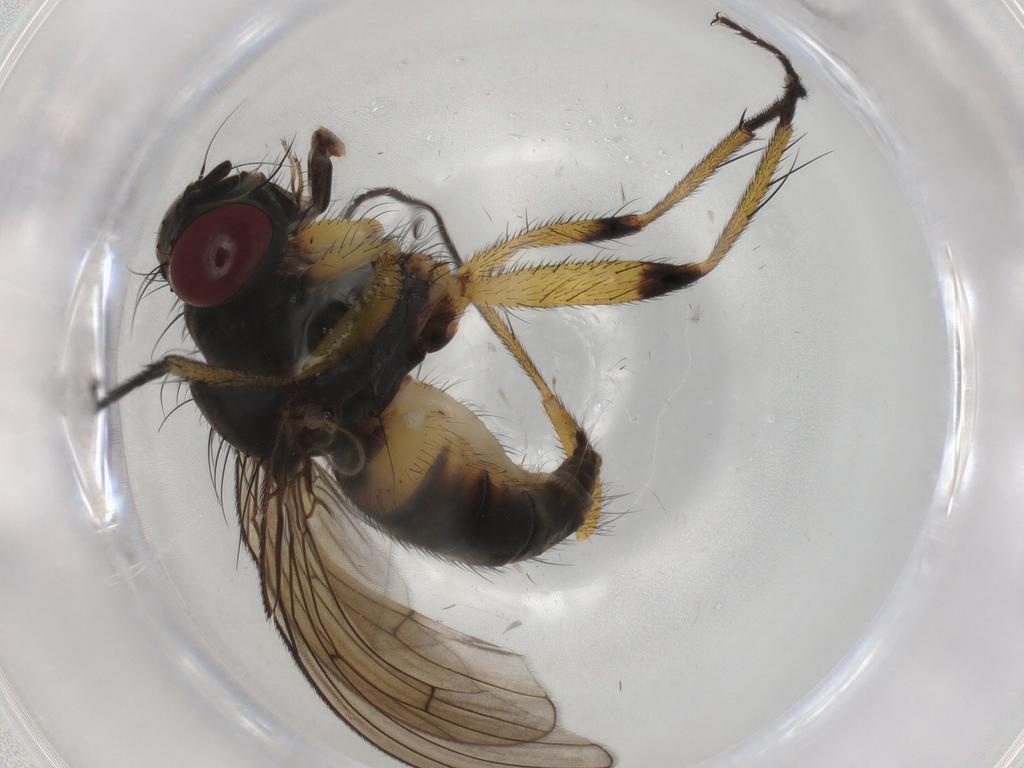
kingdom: Animalia
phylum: Arthropoda
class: Insecta
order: Diptera
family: Muscidae
